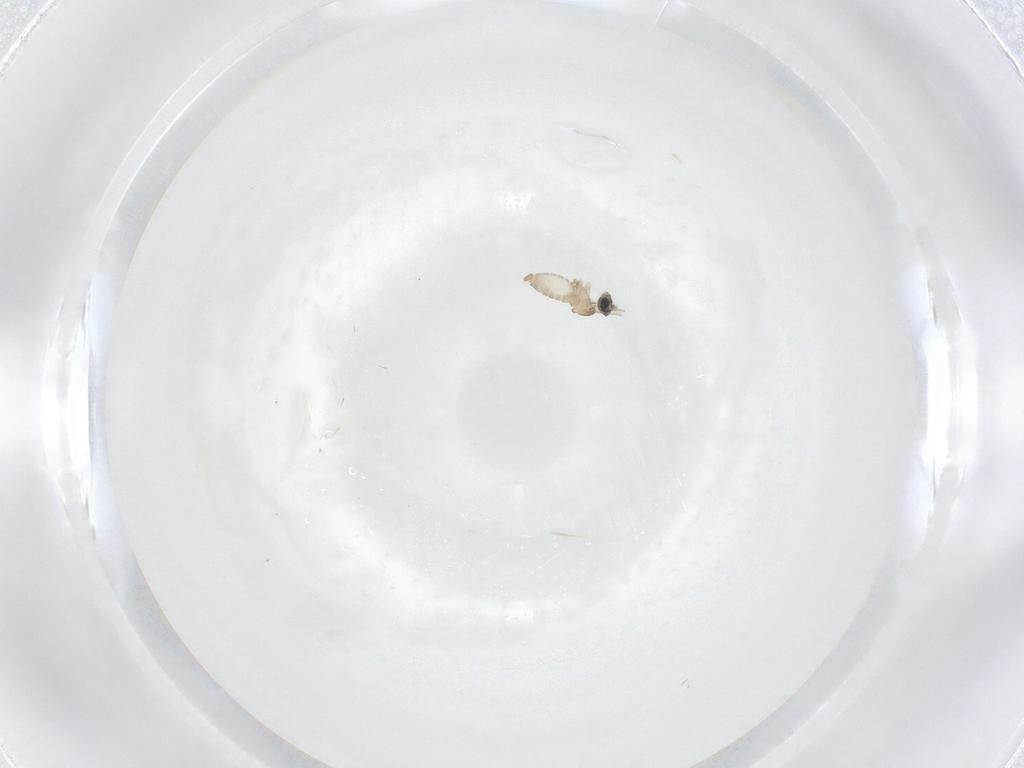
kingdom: Animalia
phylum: Arthropoda
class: Insecta
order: Diptera
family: Cecidomyiidae
